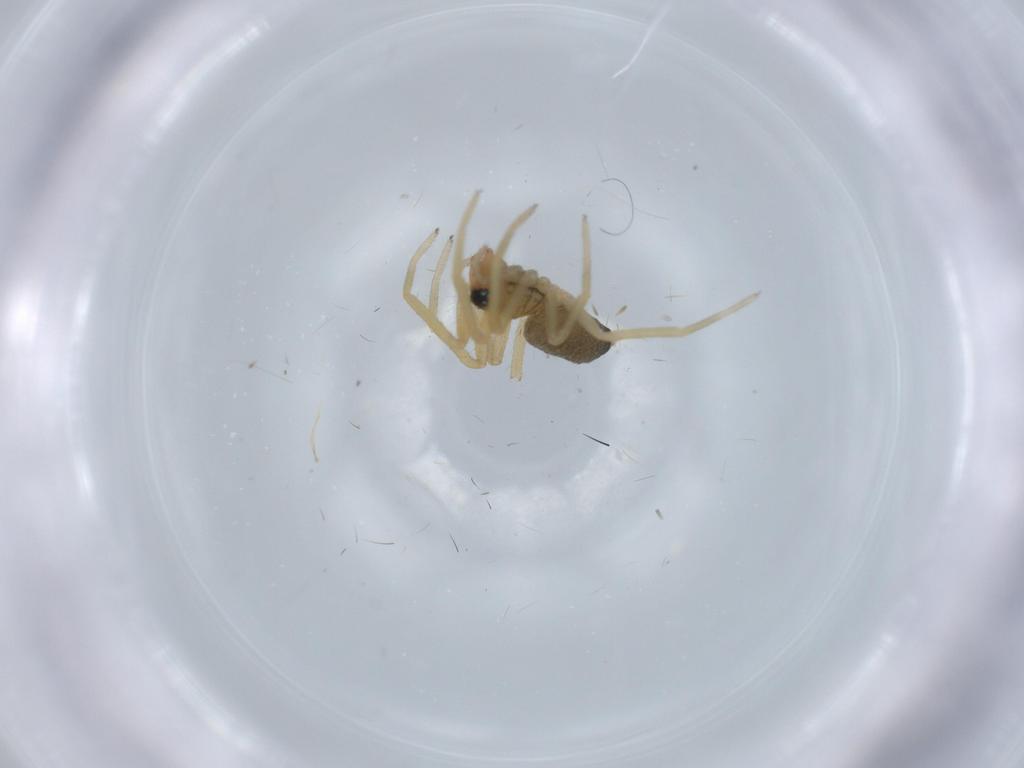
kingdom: Animalia
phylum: Arthropoda
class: Arachnida
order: Araneae
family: Linyphiidae
